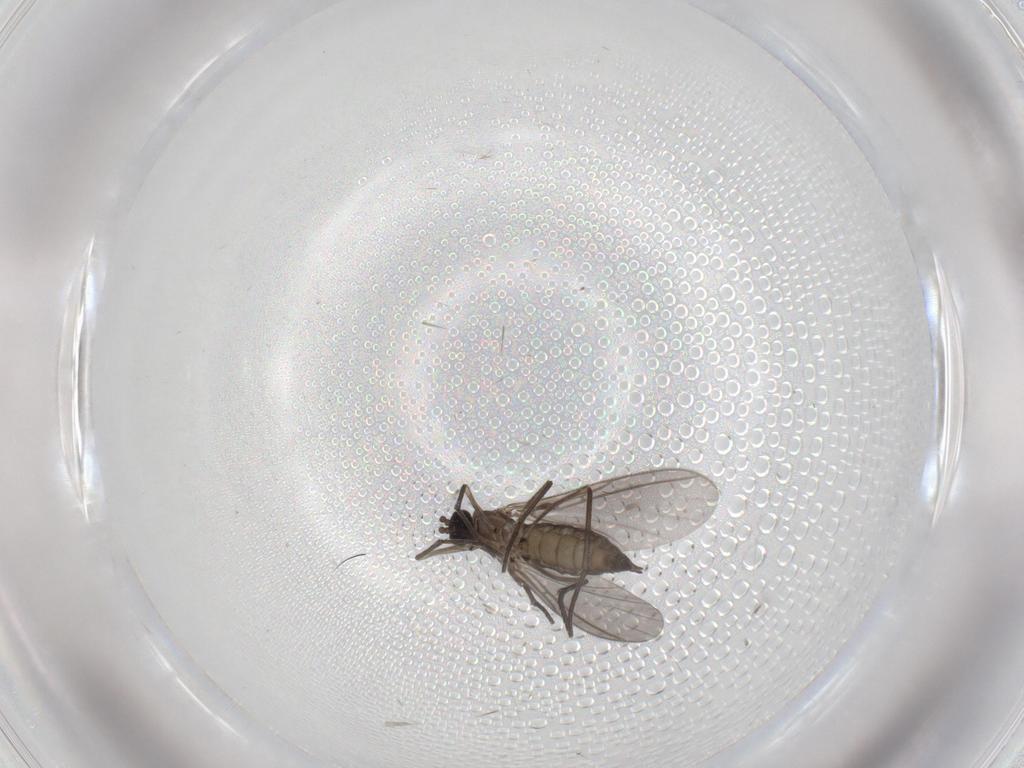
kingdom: Animalia
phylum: Arthropoda
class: Insecta
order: Diptera
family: Sciaridae
